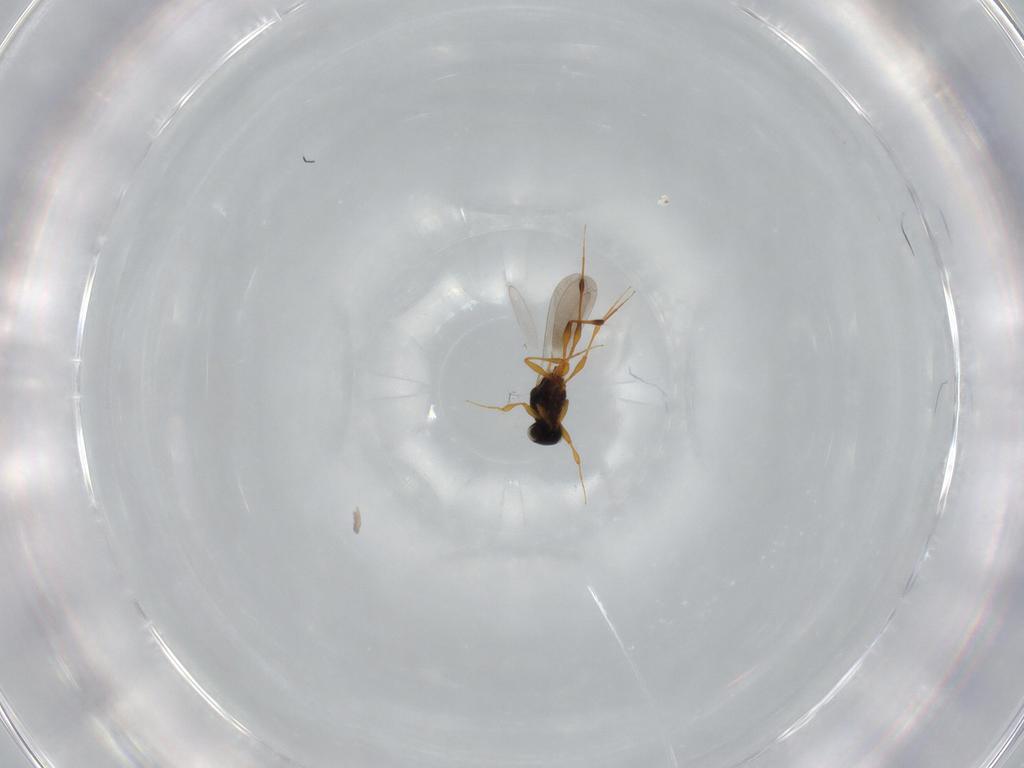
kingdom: Animalia
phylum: Arthropoda
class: Insecta
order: Hymenoptera
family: Platygastridae
